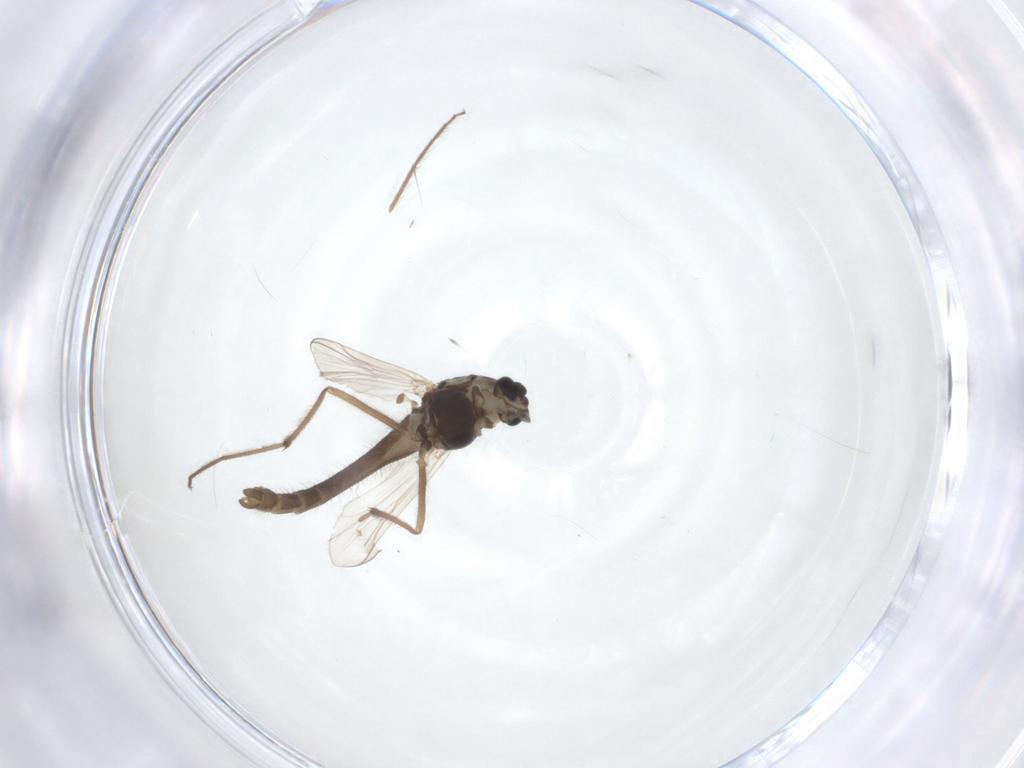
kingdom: Animalia
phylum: Arthropoda
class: Insecta
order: Diptera
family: Chironomidae
